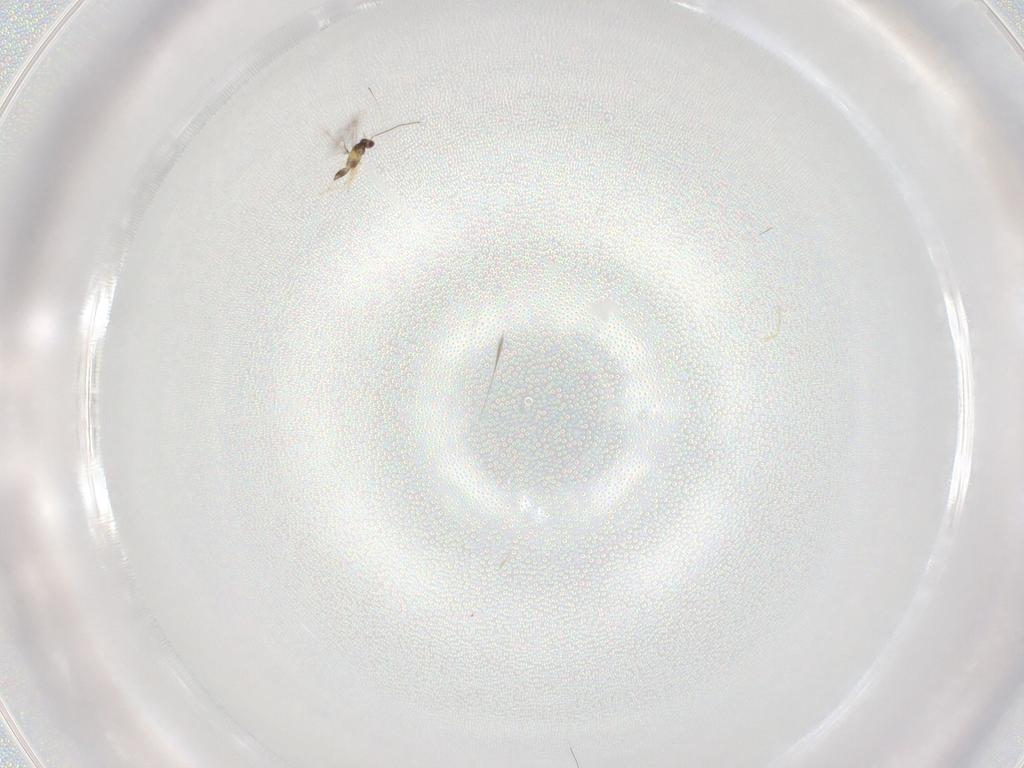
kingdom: Animalia
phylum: Arthropoda
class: Insecta
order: Hymenoptera
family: Mymaridae
